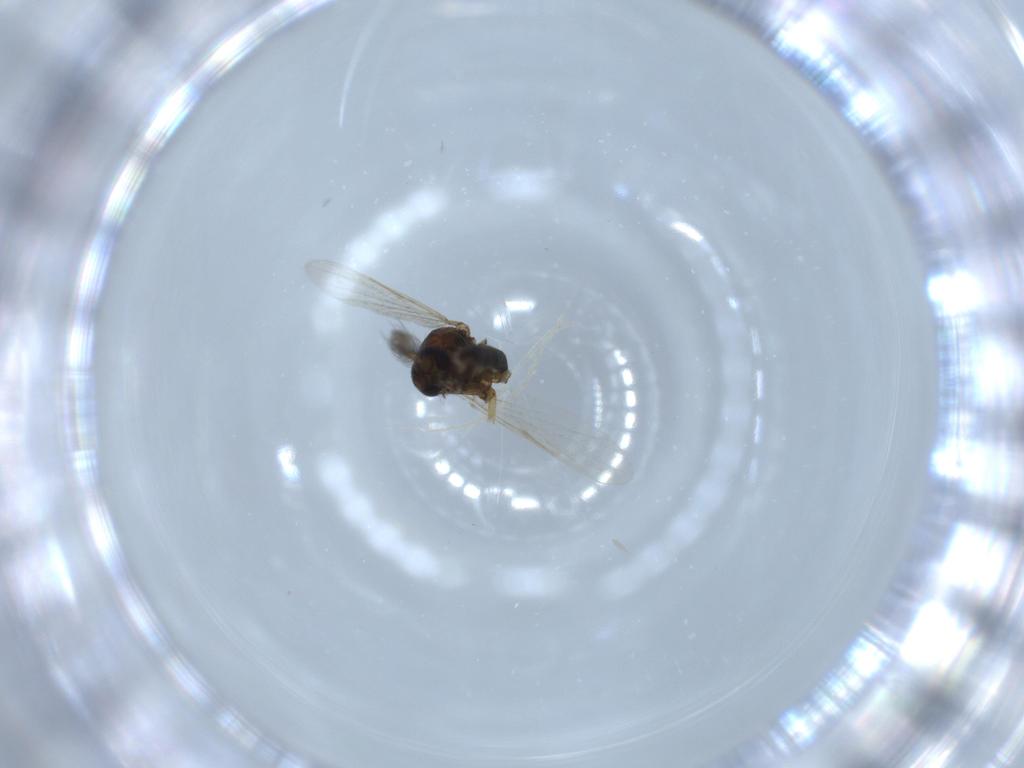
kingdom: Animalia
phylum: Arthropoda
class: Insecta
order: Diptera
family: Ceratopogonidae
